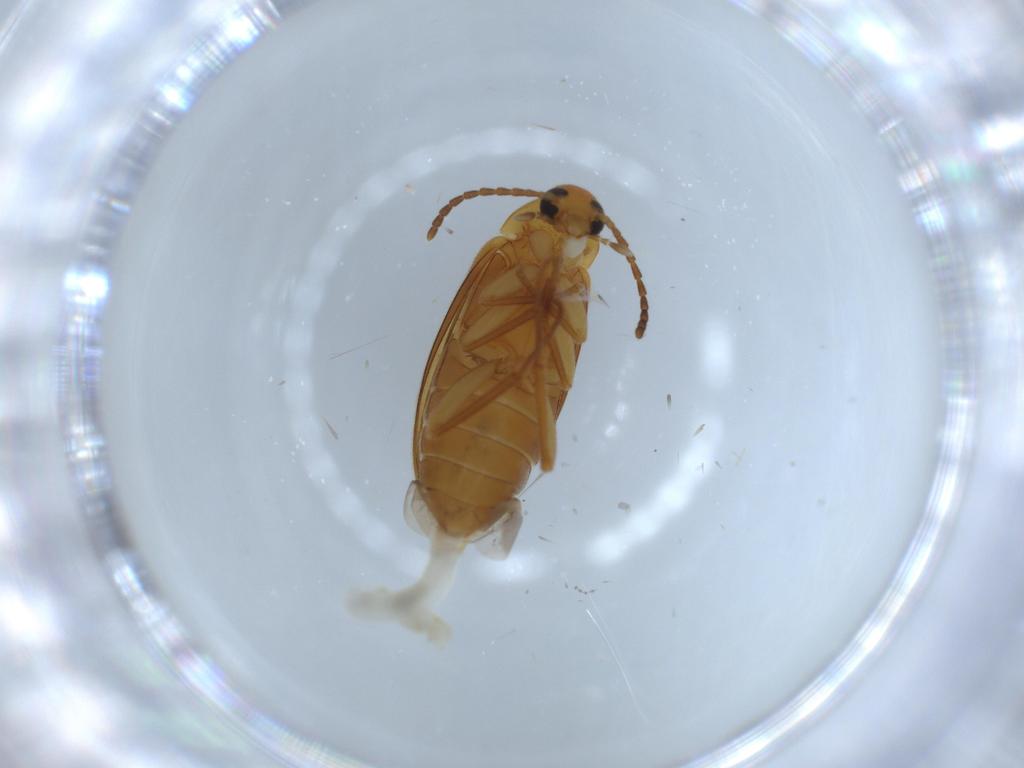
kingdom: Animalia
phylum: Arthropoda
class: Insecta
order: Coleoptera
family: Scraptiidae
